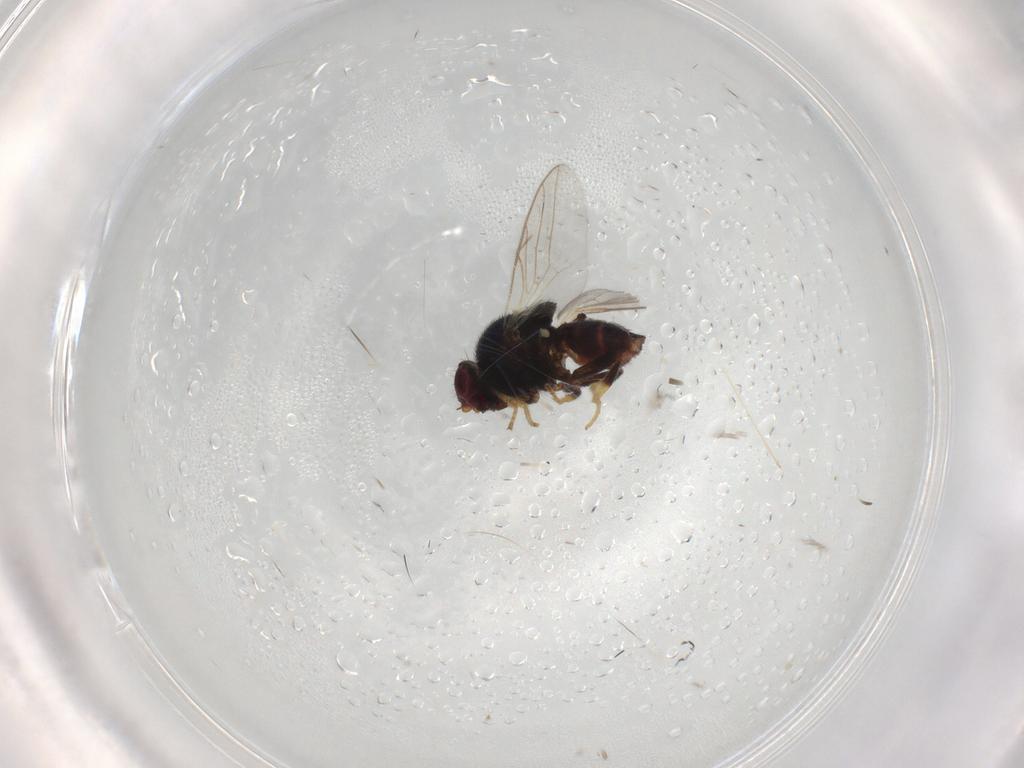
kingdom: Animalia
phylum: Arthropoda
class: Insecta
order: Diptera
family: Chloropidae
